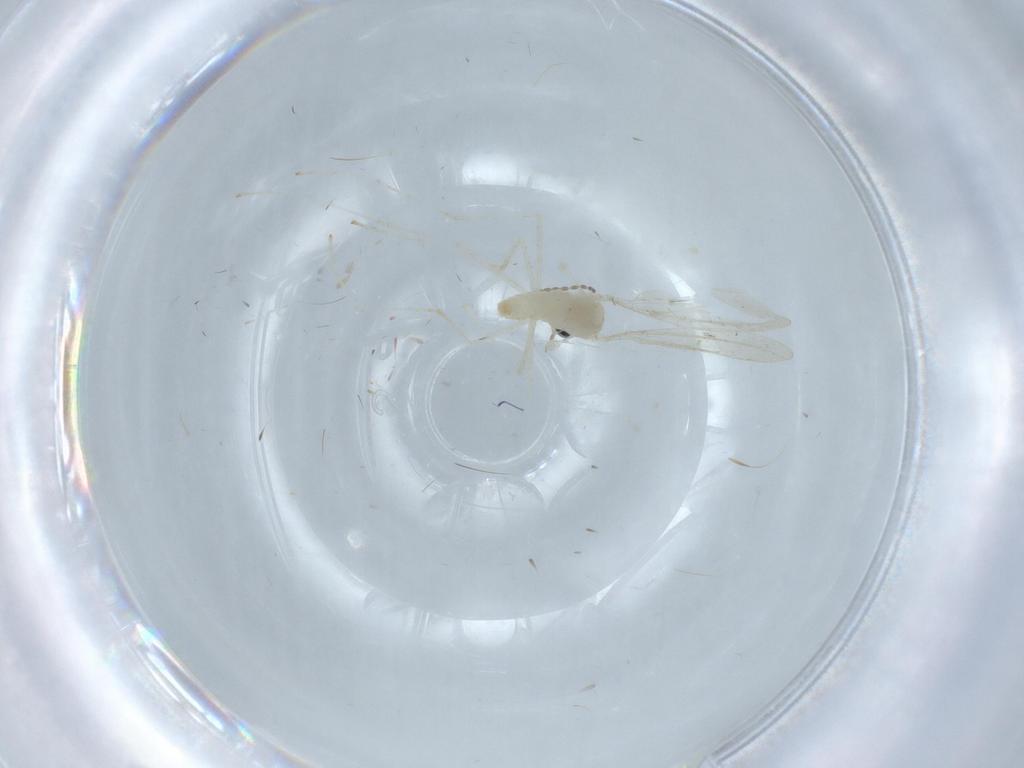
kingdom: Animalia
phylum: Arthropoda
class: Insecta
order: Diptera
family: Cecidomyiidae
